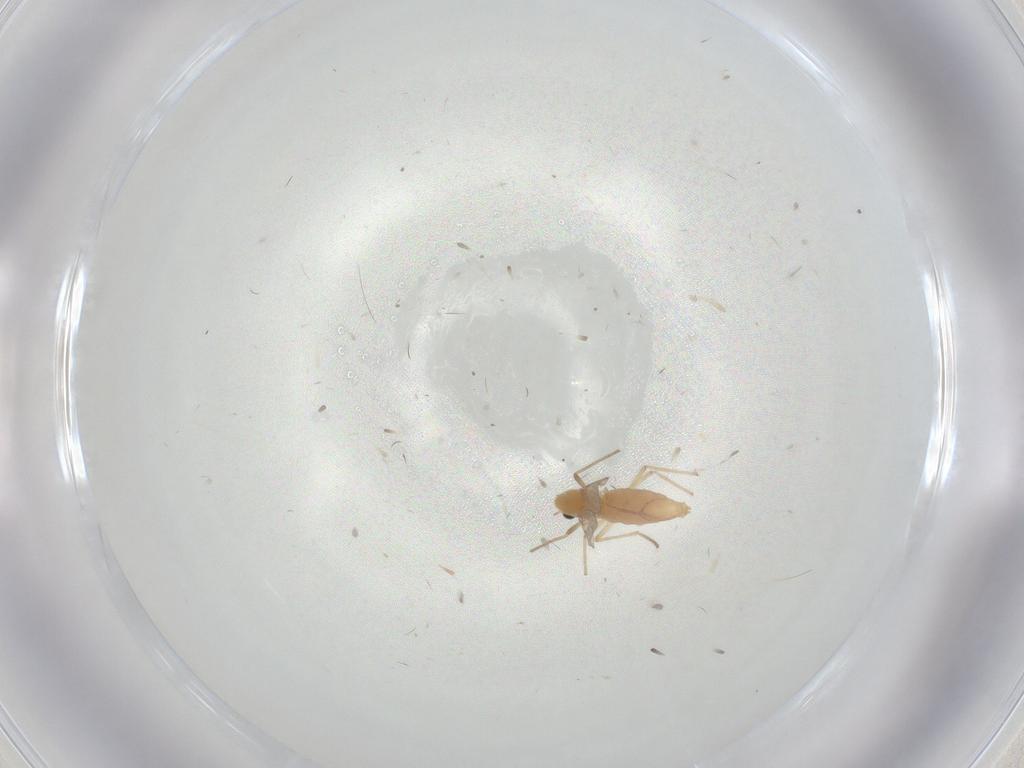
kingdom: Animalia
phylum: Arthropoda
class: Insecta
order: Diptera
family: Chironomidae
